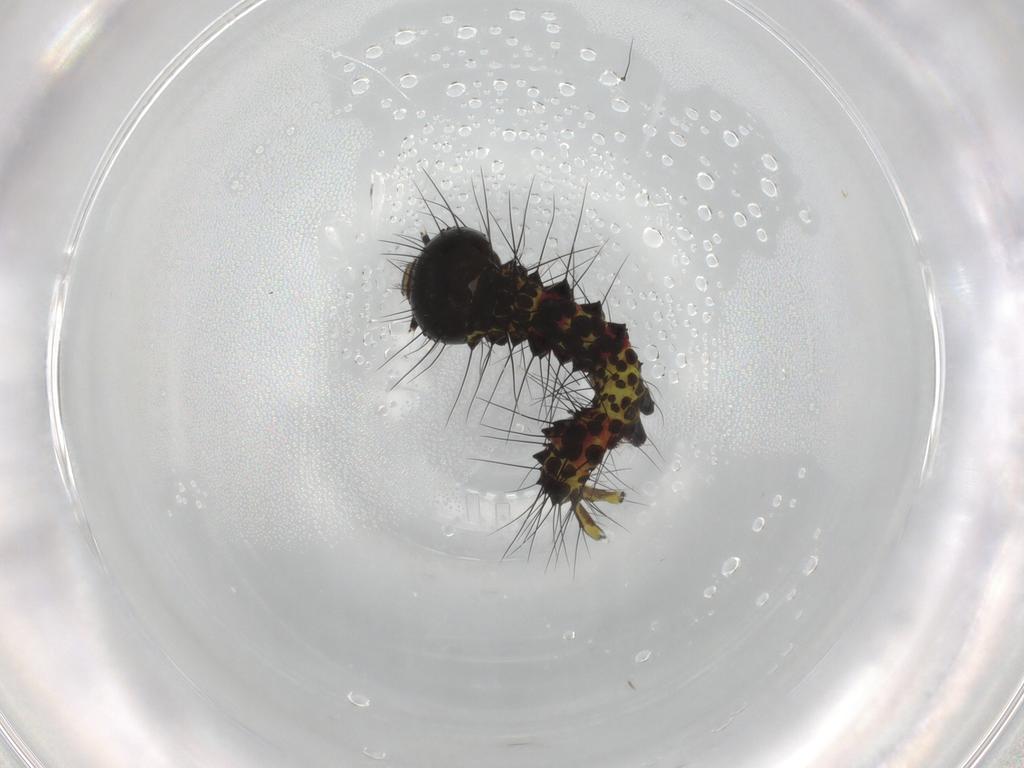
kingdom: Animalia
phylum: Arthropoda
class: Insecta
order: Lepidoptera
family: Notodontidae
